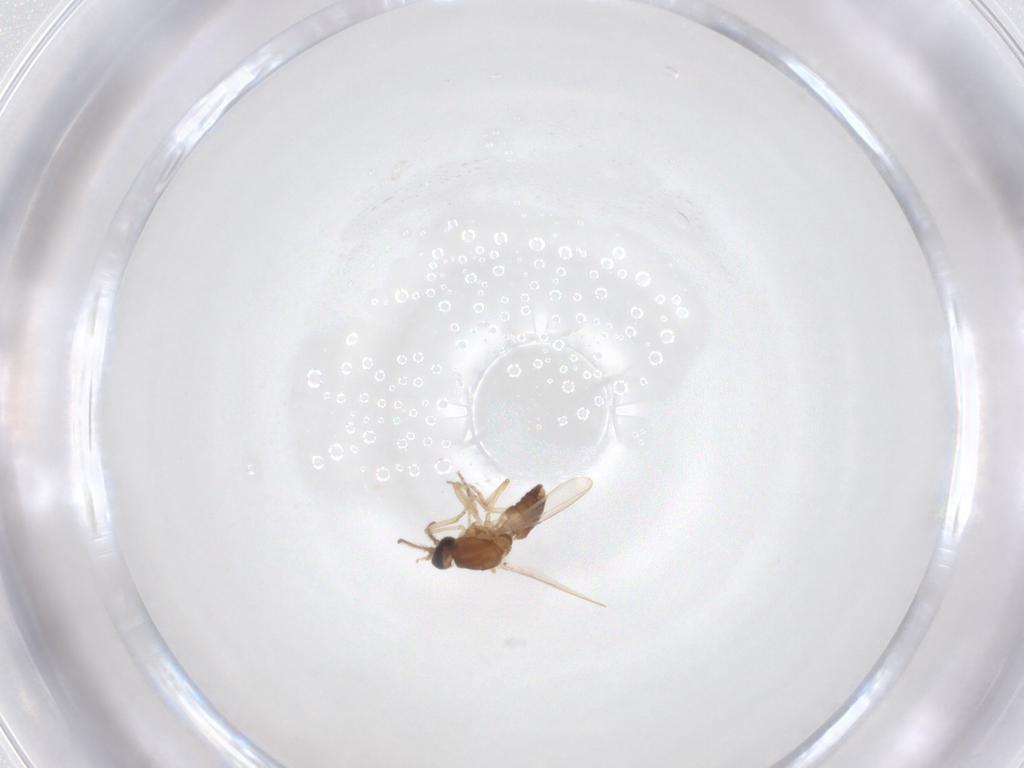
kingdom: Animalia
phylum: Arthropoda
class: Insecta
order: Diptera
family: Ceratopogonidae
